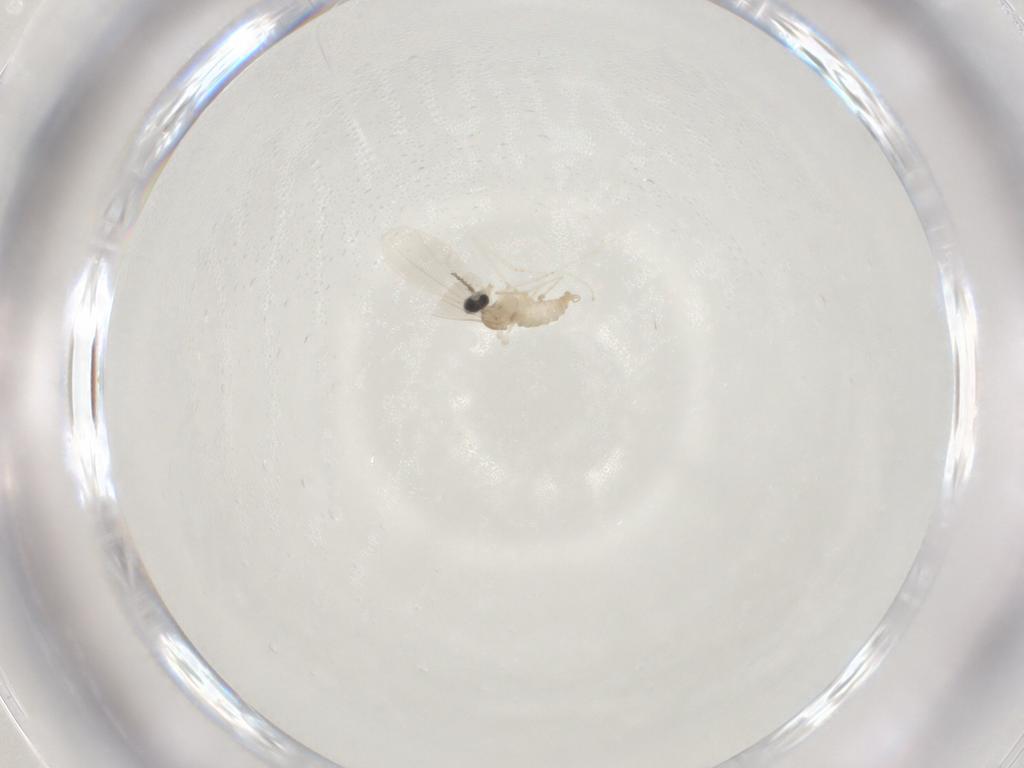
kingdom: Animalia
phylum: Arthropoda
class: Insecta
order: Diptera
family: Cecidomyiidae
